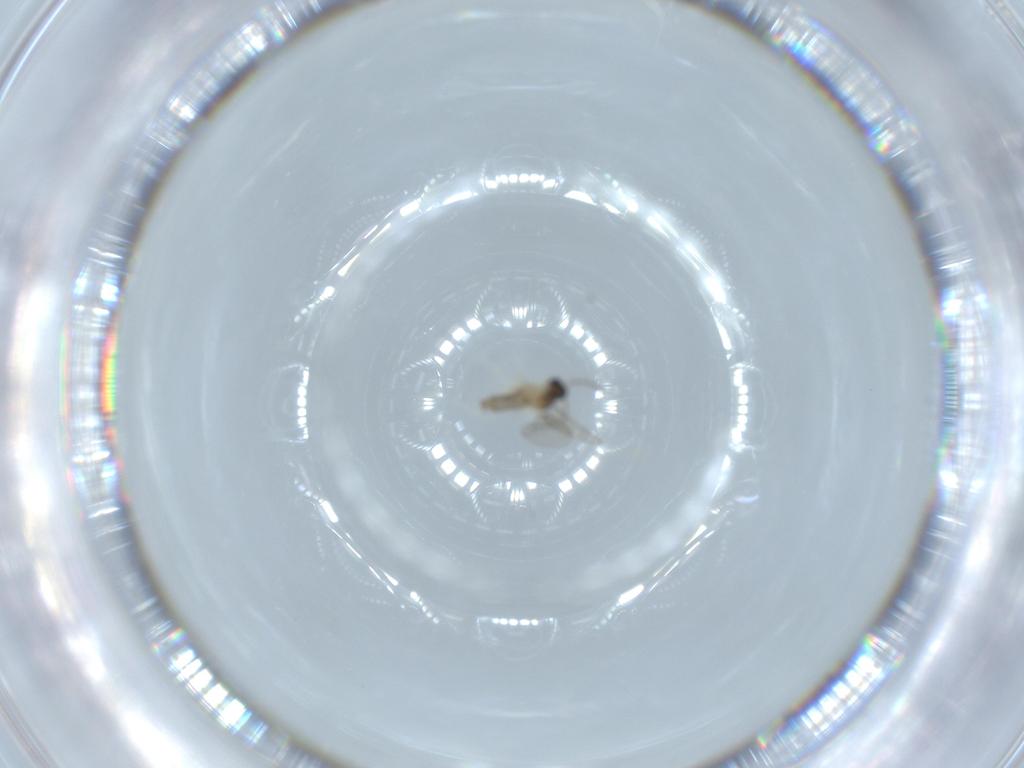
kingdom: Animalia
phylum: Arthropoda
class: Insecta
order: Diptera
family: Cecidomyiidae
